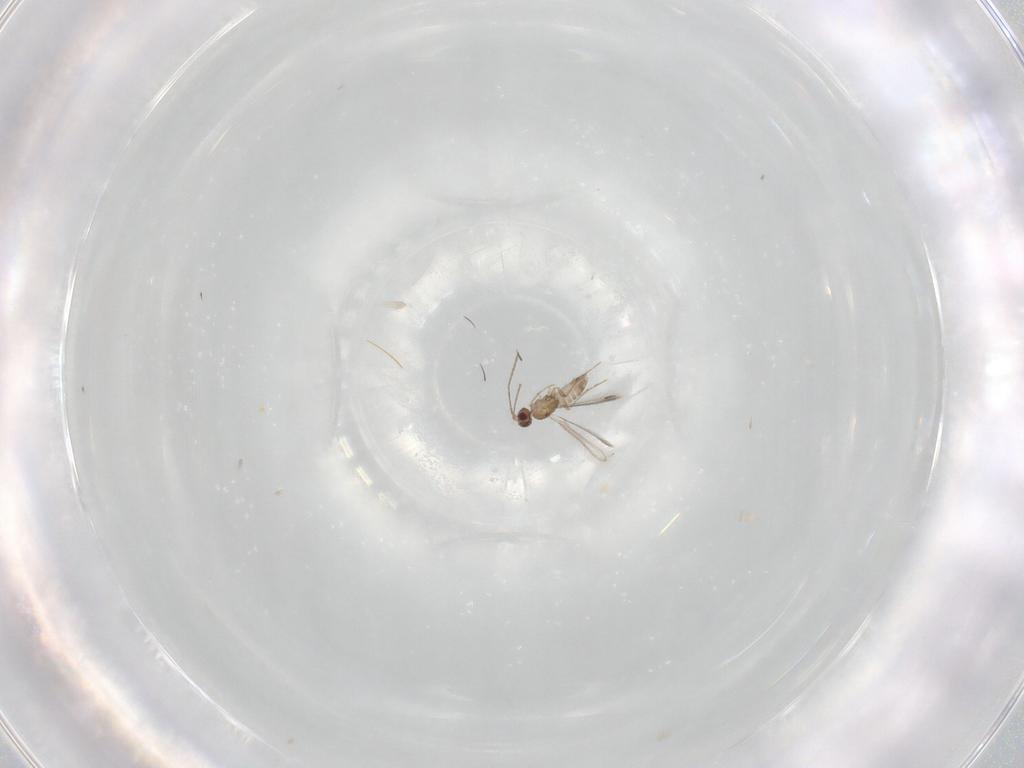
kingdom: Animalia
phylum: Arthropoda
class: Insecta
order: Hymenoptera
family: Mymaridae
